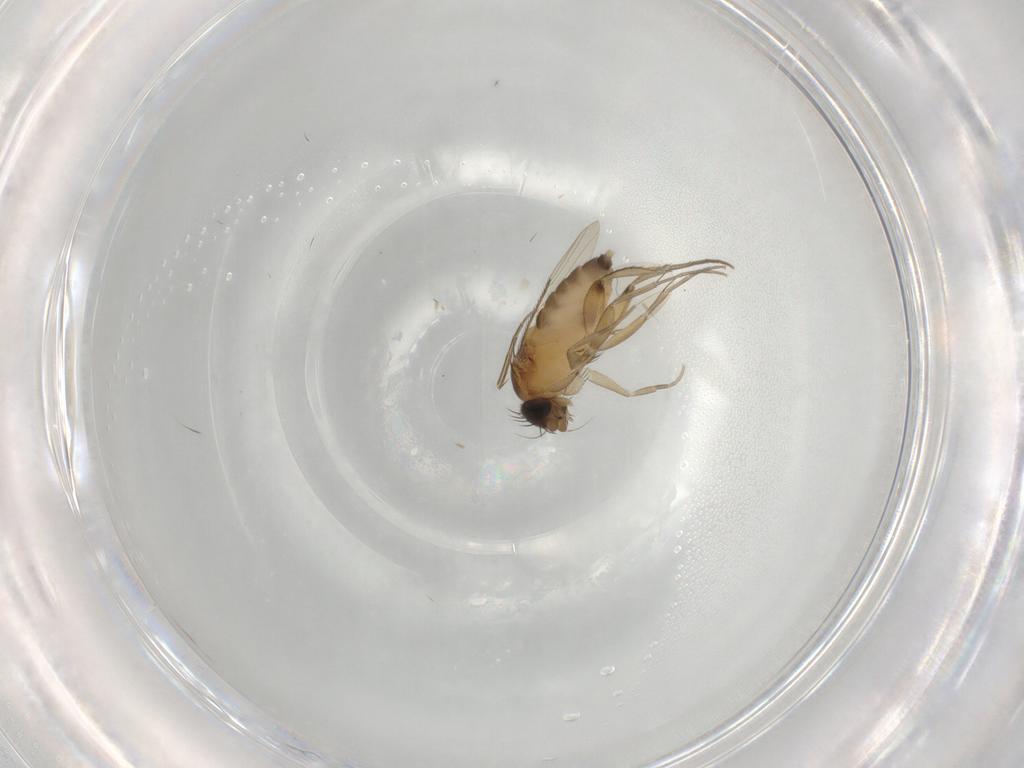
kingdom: Animalia
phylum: Arthropoda
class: Insecta
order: Diptera
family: Phoridae
